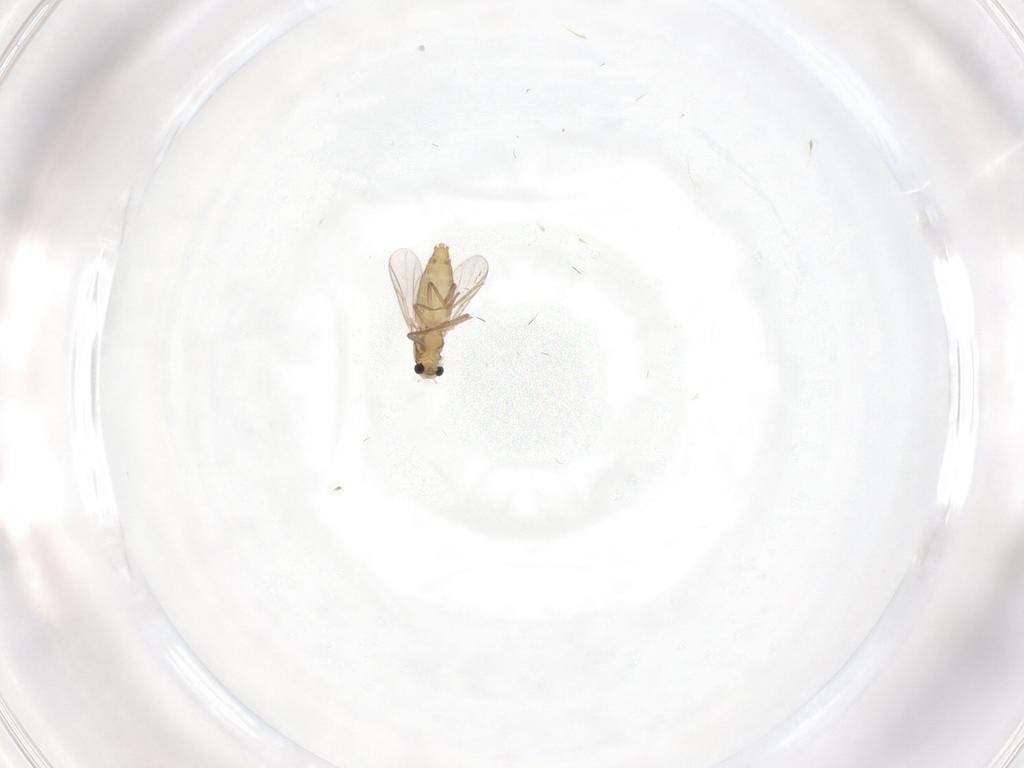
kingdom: Animalia
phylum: Arthropoda
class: Insecta
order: Diptera
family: Chironomidae
